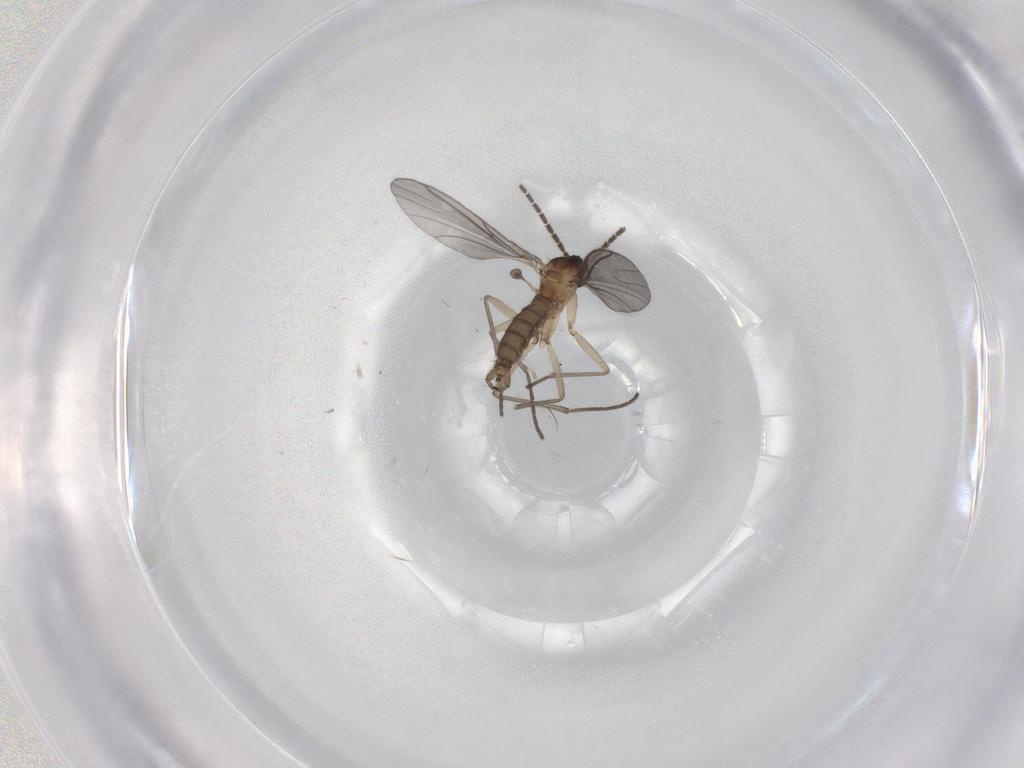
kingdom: Animalia
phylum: Arthropoda
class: Insecta
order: Diptera
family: Sciaridae
